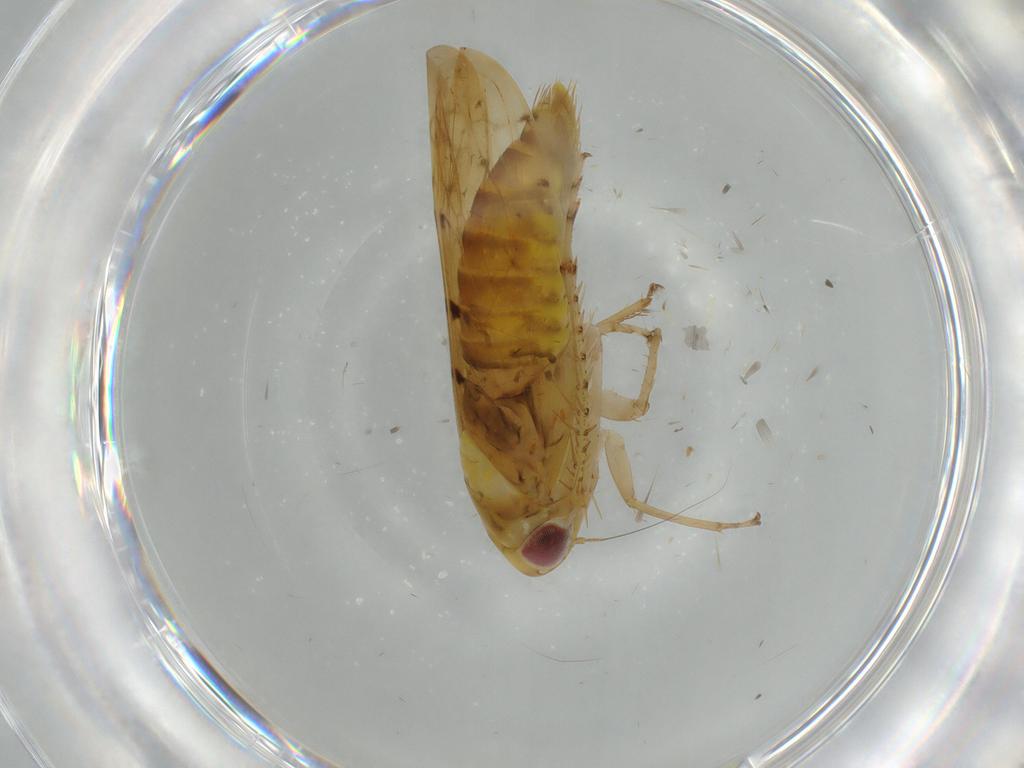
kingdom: Animalia
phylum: Arthropoda
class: Insecta
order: Hemiptera
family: Cicadellidae
